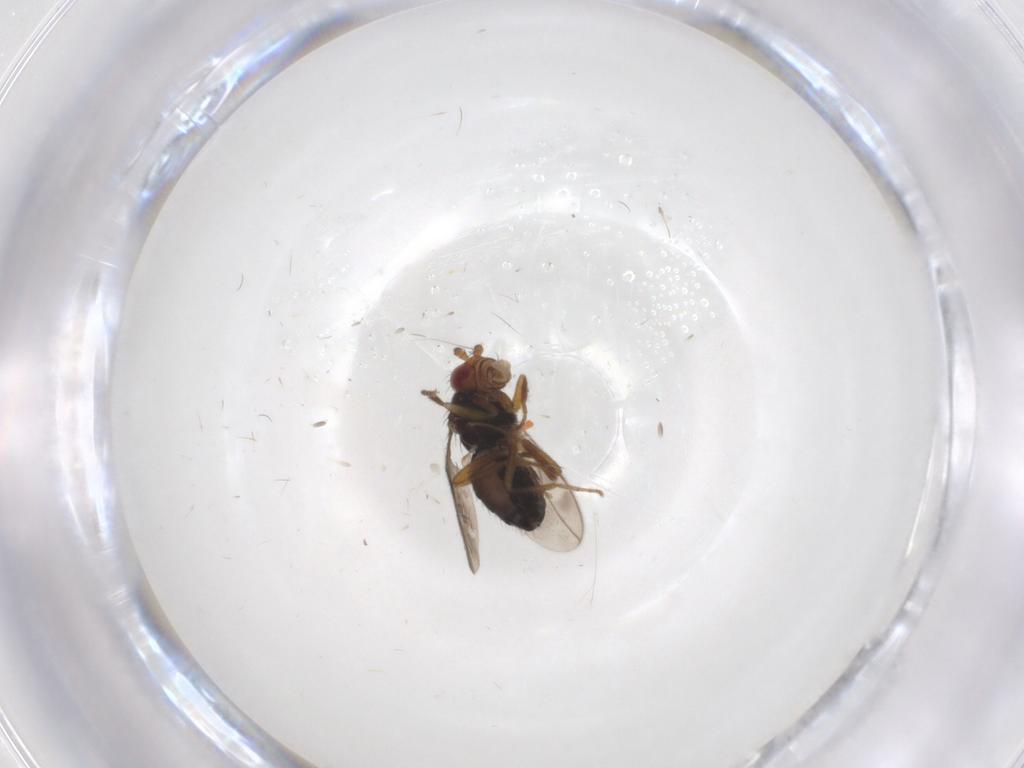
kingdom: Animalia
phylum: Arthropoda
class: Insecta
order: Diptera
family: Sphaeroceridae
